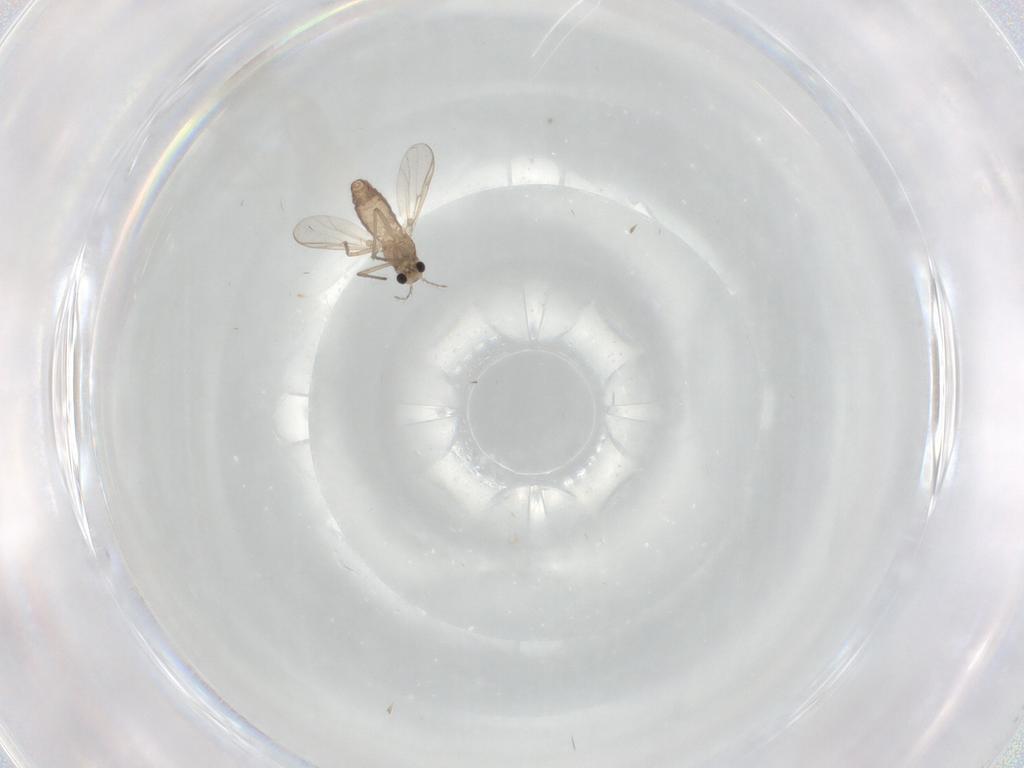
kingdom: Animalia
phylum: Arthropoda
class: Insecta
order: Diptera
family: Chironomidae
